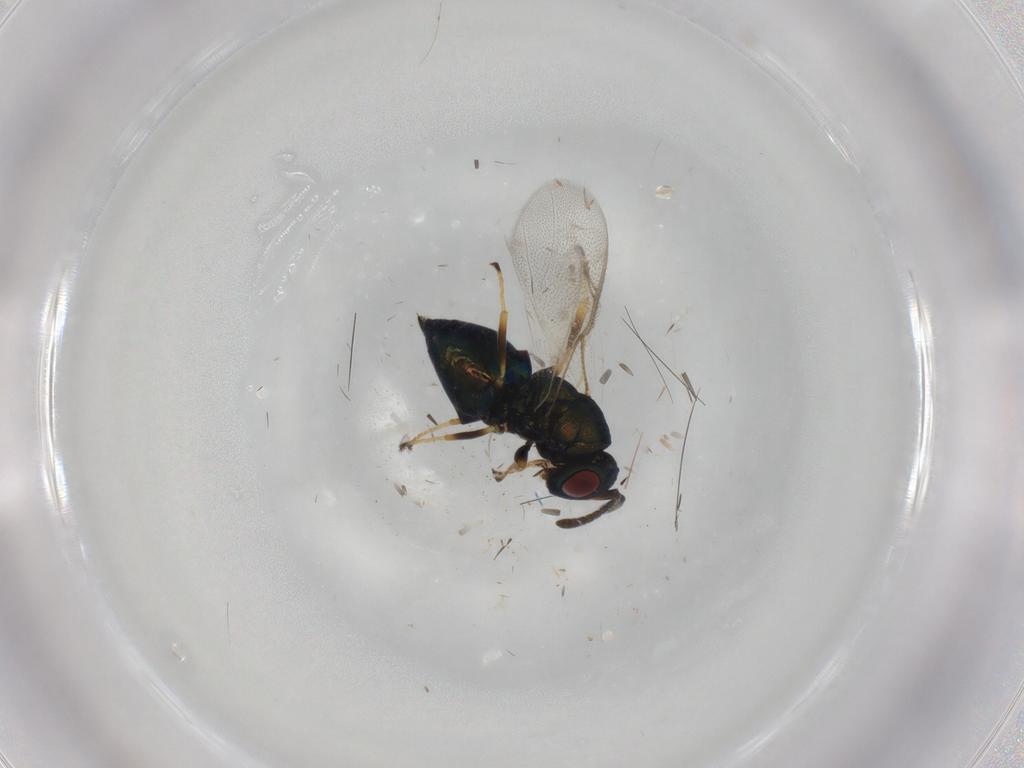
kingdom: Animalia
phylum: Arthropoda
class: Insecta
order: Hymenoptera
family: Pteromalidae
